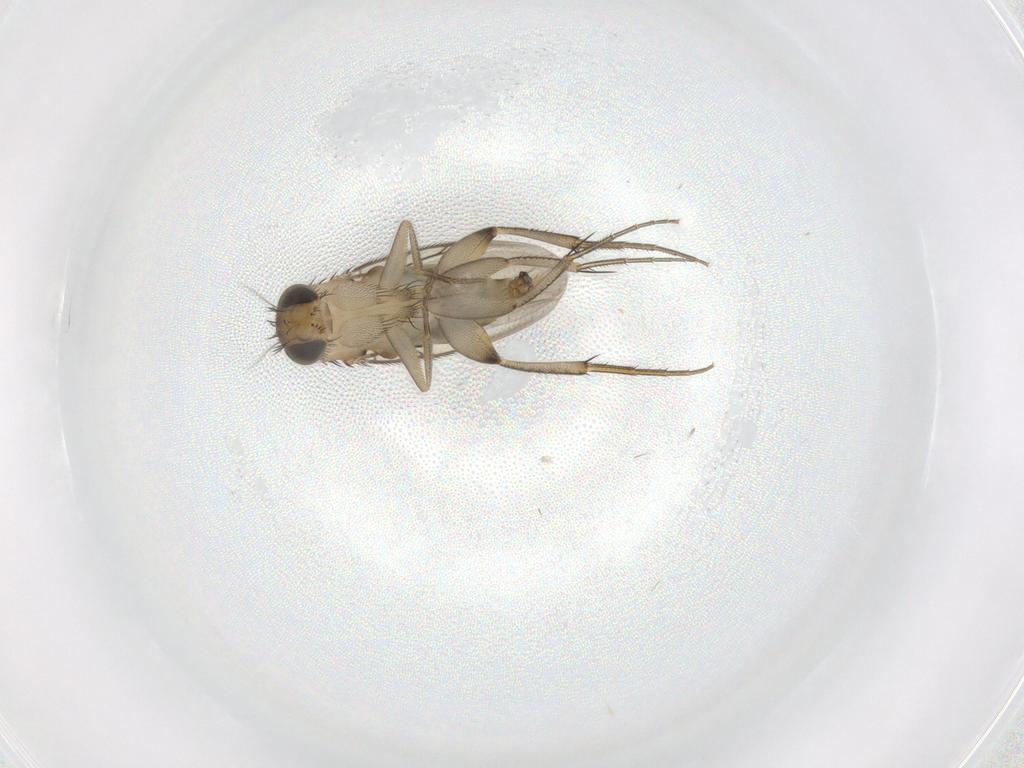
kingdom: Animalia
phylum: Arthropoda
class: Insecta
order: Diptera
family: Phoridae
